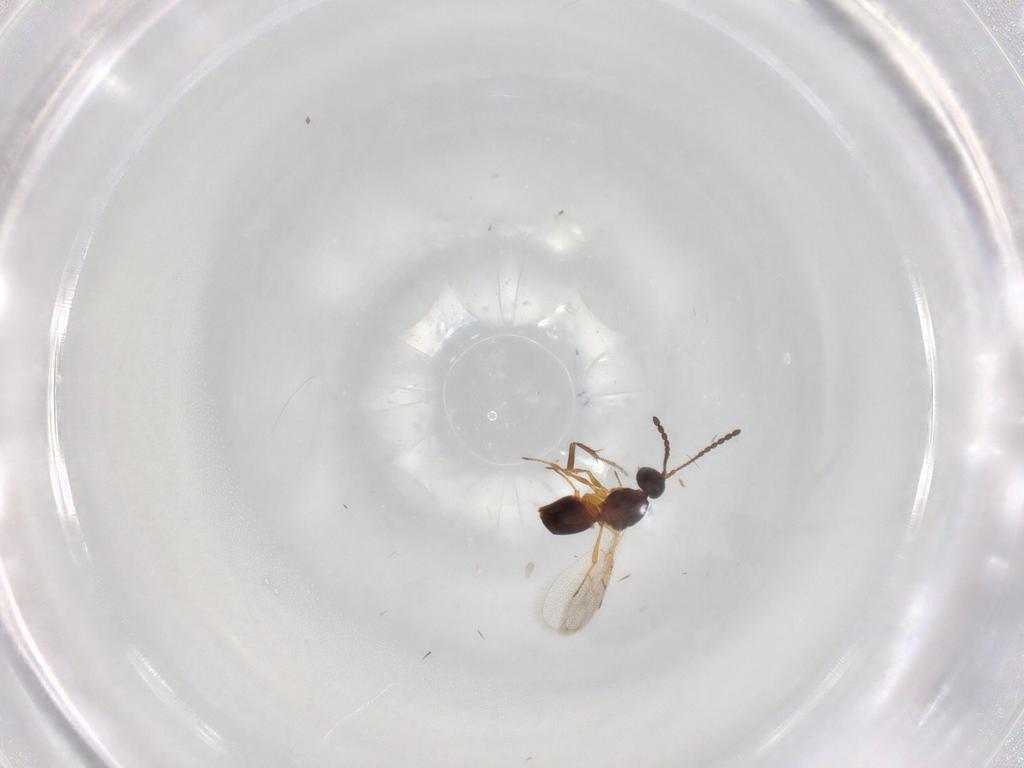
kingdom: Animalia
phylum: Arthropoda
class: Insecta
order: Hymenoptera
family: Figitidae
